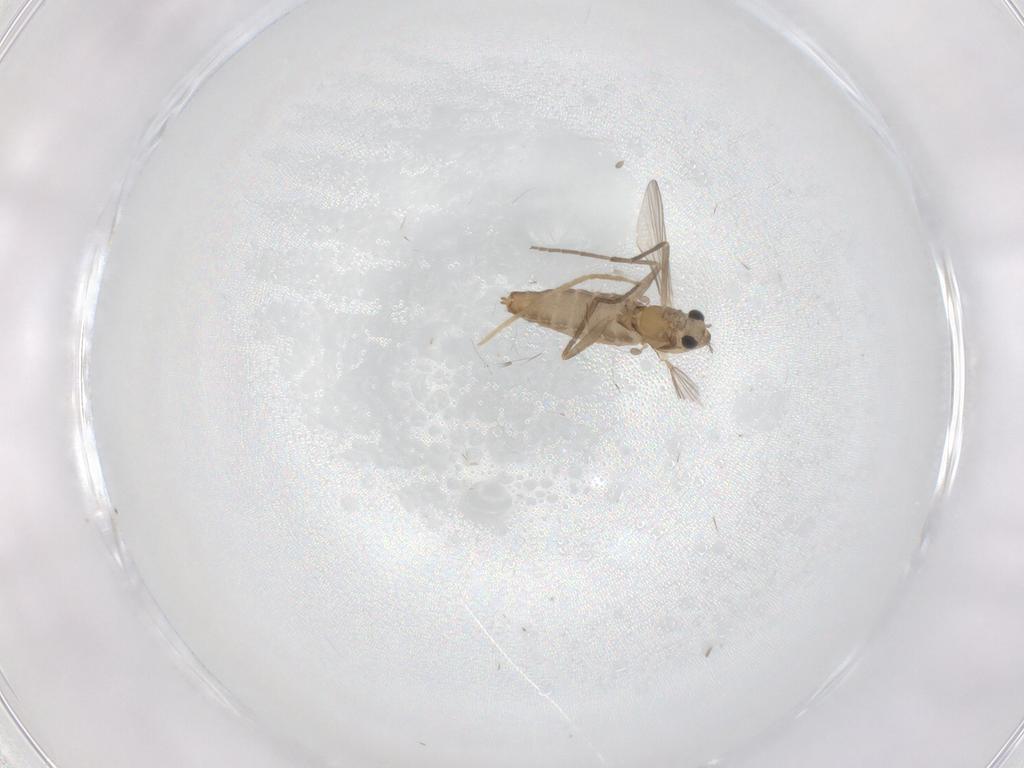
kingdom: Animalia
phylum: Arthropoda
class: Insecta
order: Diptera
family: Chironomidae
